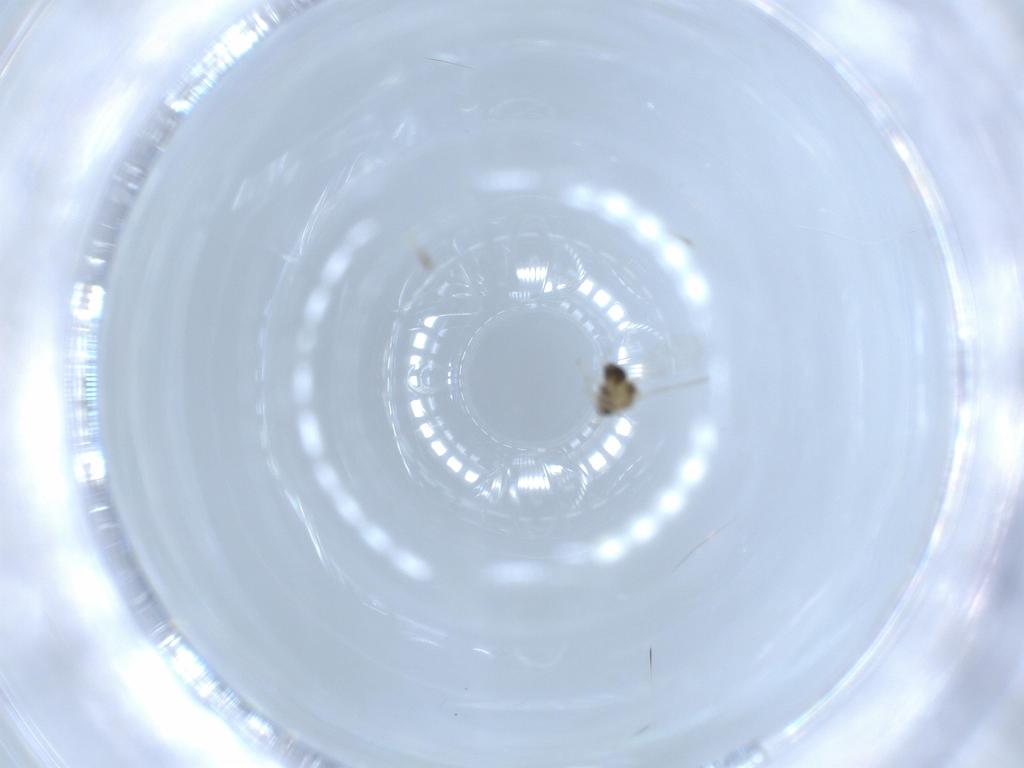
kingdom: Animalia
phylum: Arthropoda
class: Insecta
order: Diptera
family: Chironomidae
